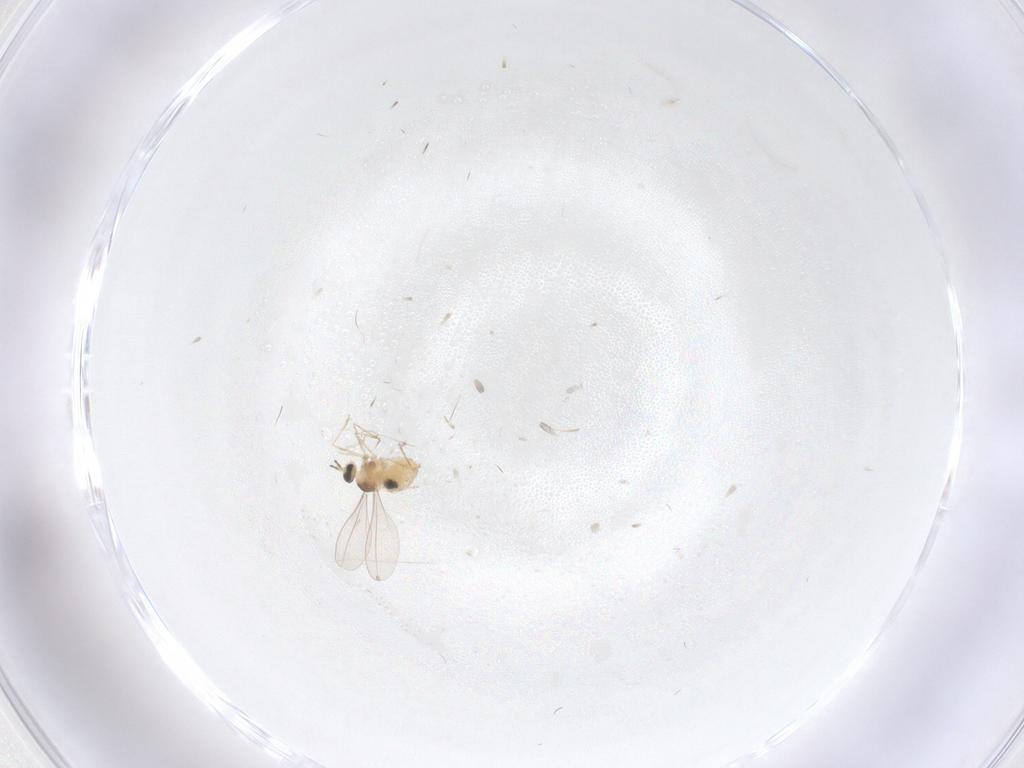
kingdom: Animalia
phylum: Arthropoda
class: Insecta
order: Diptera
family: Cecidomyiidae
